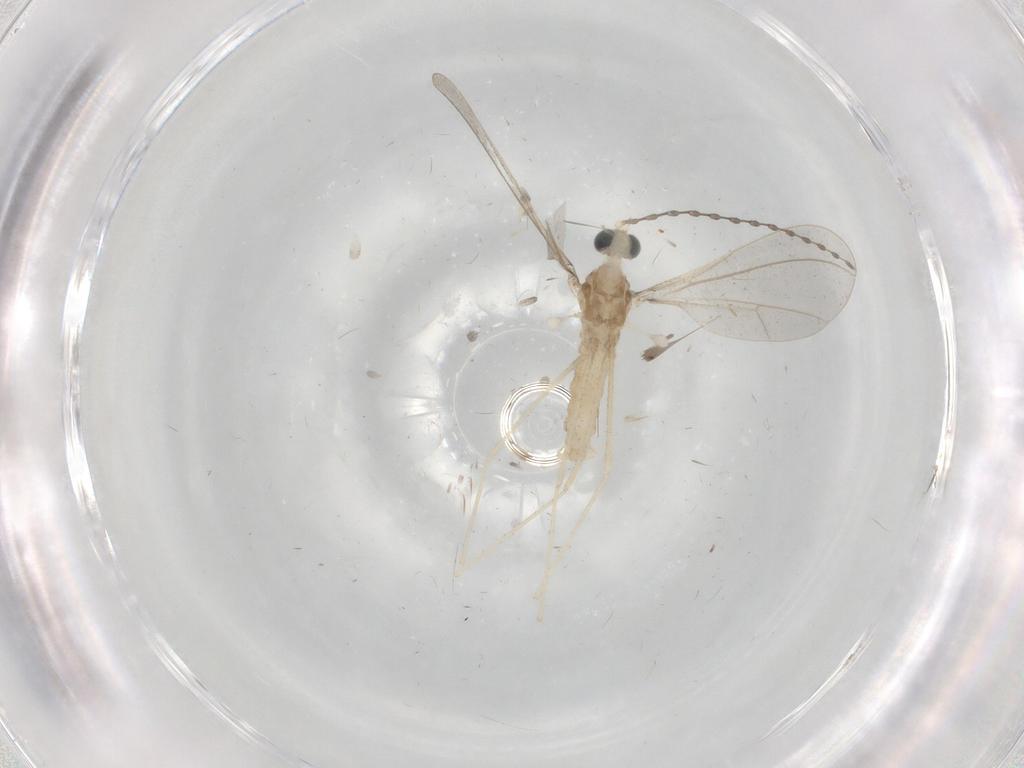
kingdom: Animalia
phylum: Arthropoda
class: Insecta
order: Diptera
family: Cecidomyiidae
